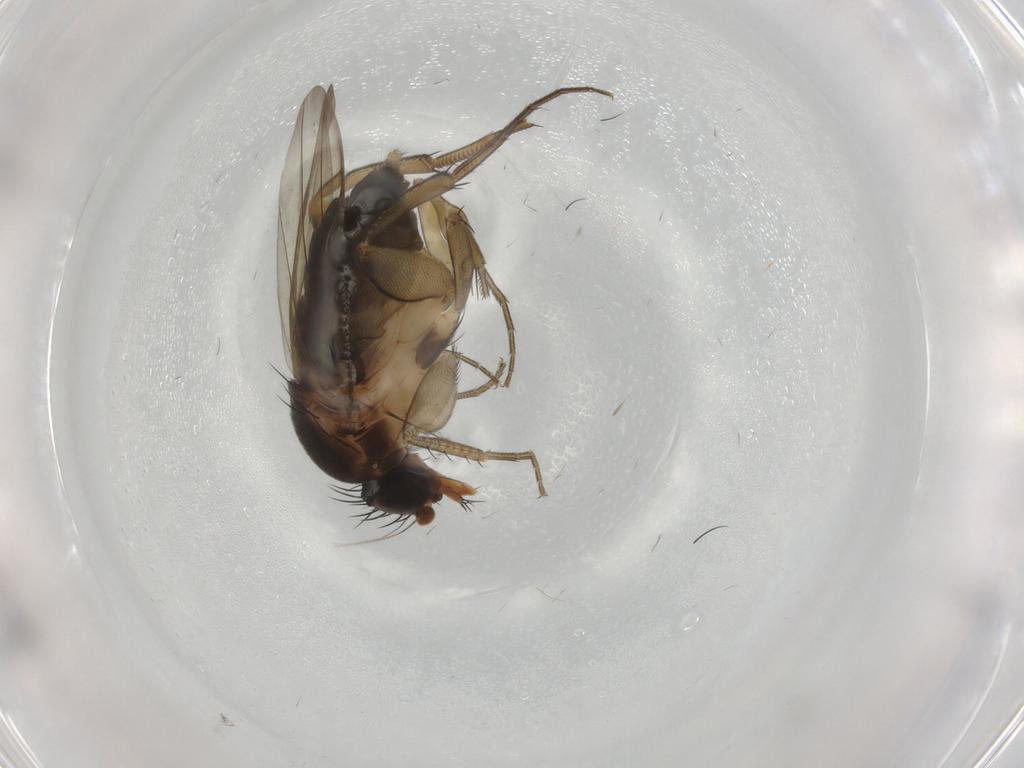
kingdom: Animalia
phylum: Arthropoda
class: Insecta
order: Diptera
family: Phoridae
